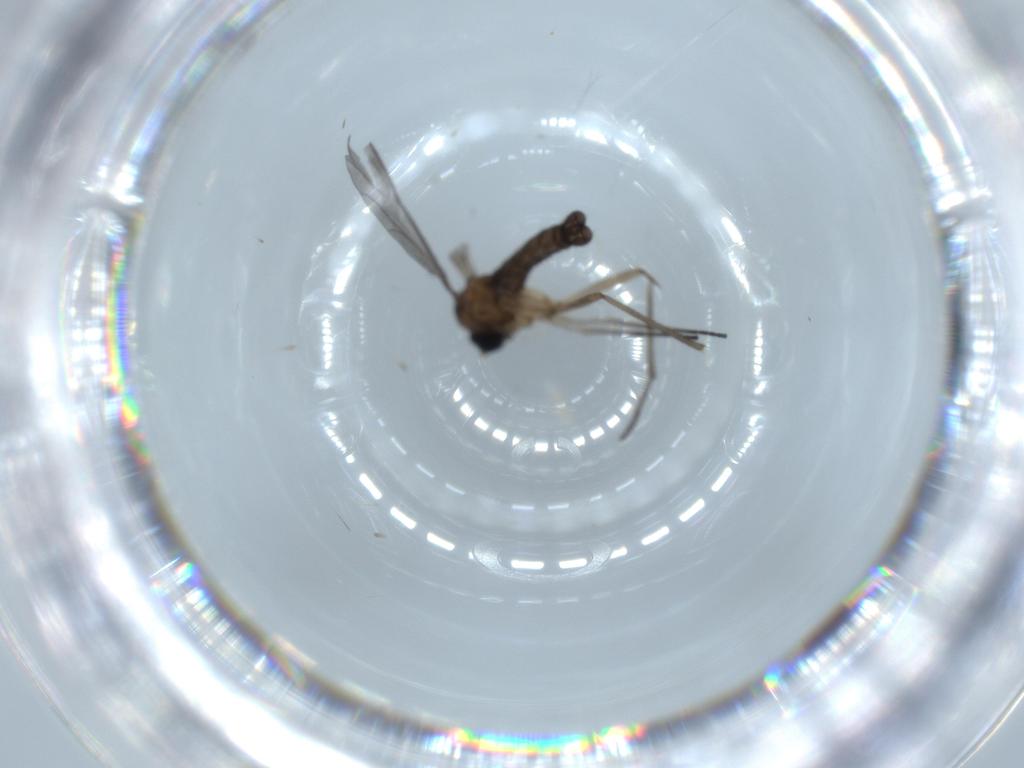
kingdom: Animalia
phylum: Arthropoda
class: Insecta
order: Diptera
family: Sciaridae
